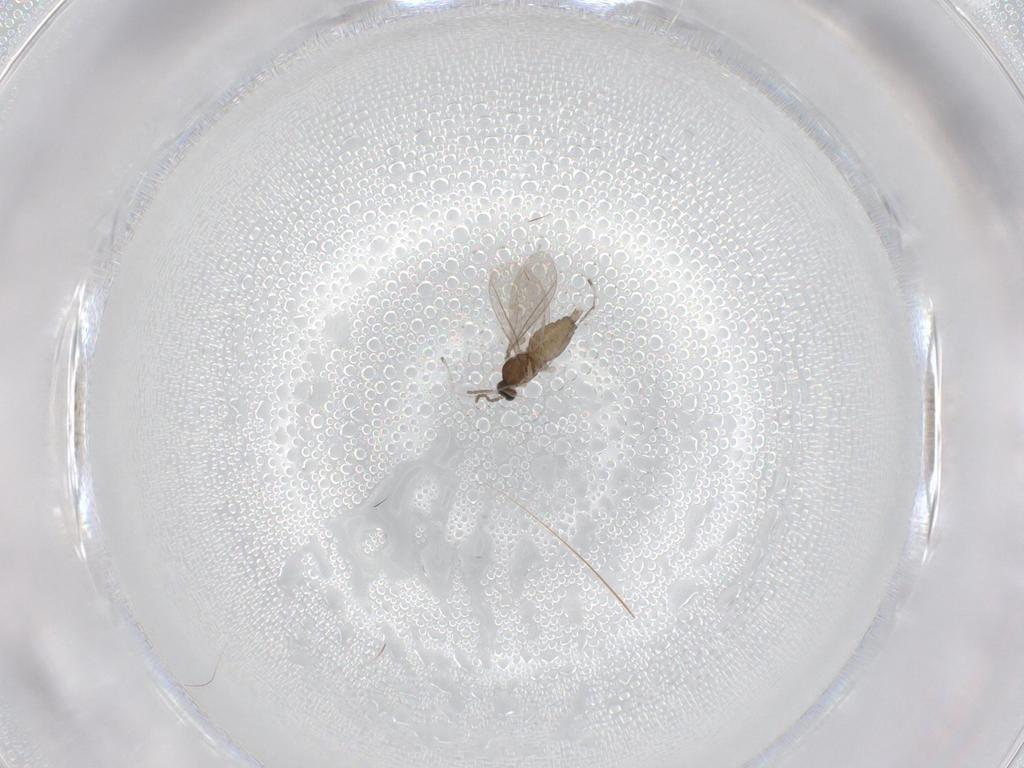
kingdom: Animalia
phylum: Arthropoda
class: Insecta
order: Diptera
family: Cecidomyiidae
